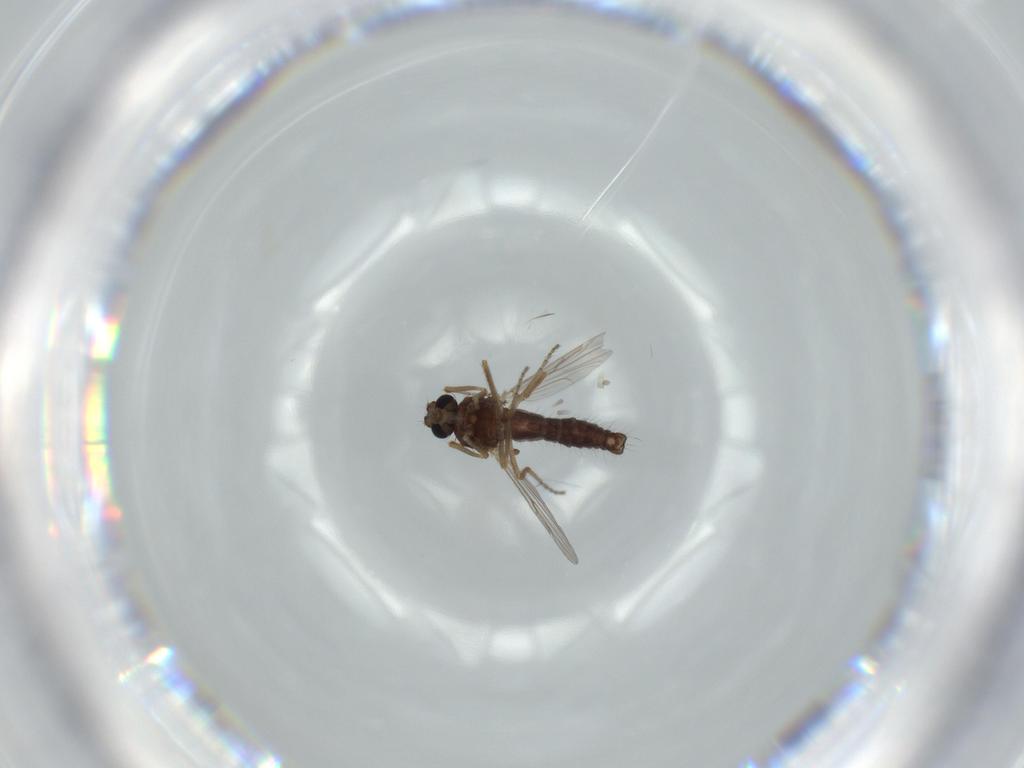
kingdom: Animalia
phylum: Arthropoda
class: Insecta
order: Diptera
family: Ceratopogonidae
